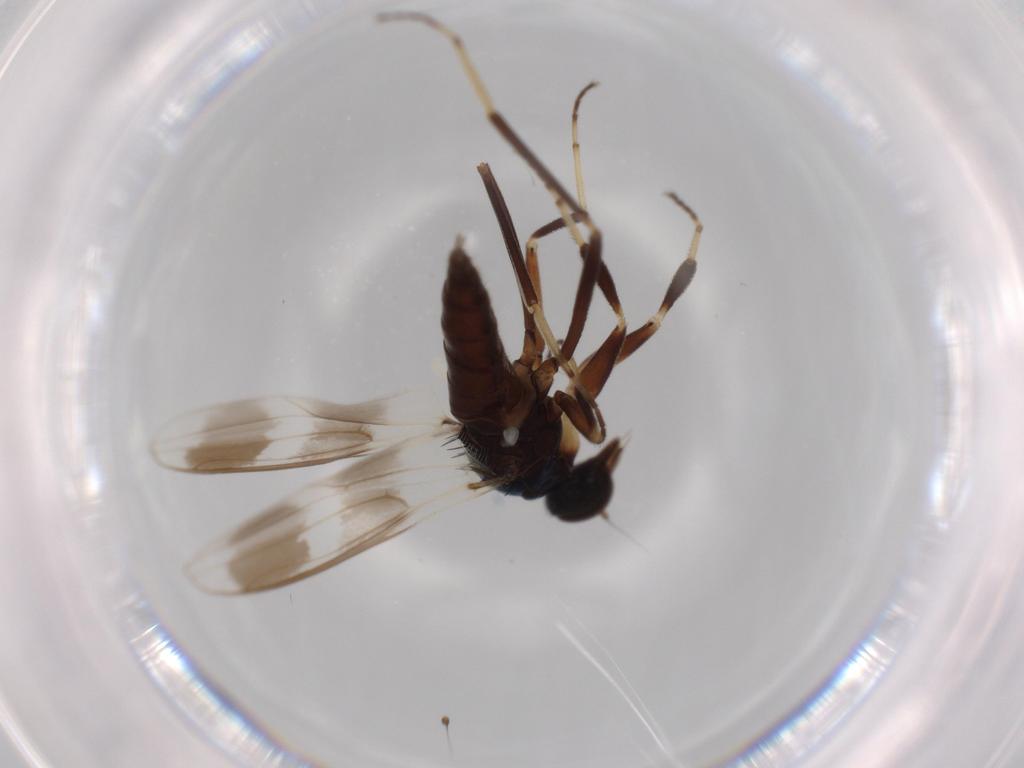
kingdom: Animalia
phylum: Arthropoda
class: Insecta
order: Diptera
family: Hybotidae
